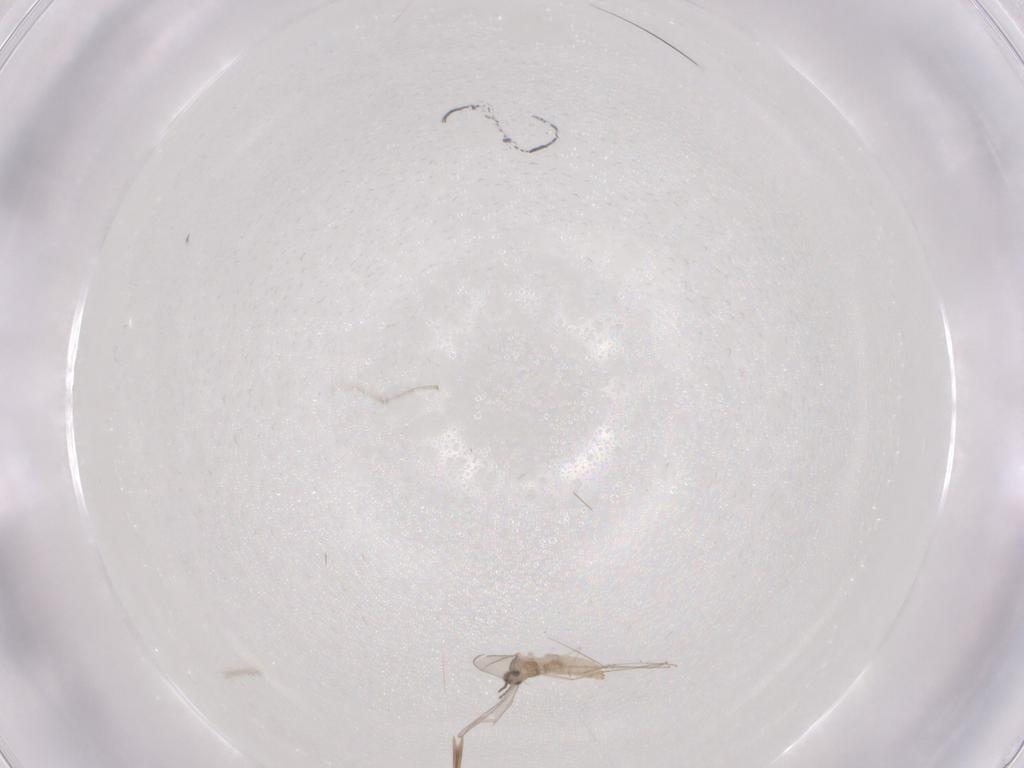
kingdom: Animalia
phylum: Arthropoda
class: Insecta
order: Diptera
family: Cecidomyiidae
